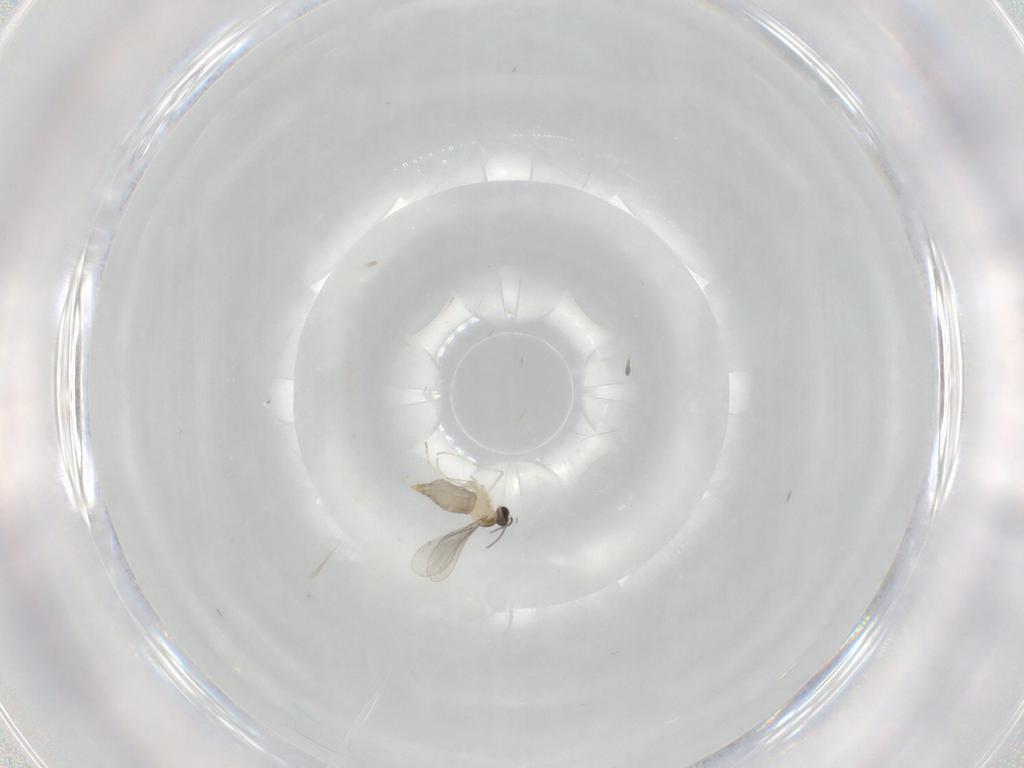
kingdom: Animalia
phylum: Arthropoda
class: Insecta
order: Diptera
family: Cecidomyiidae
